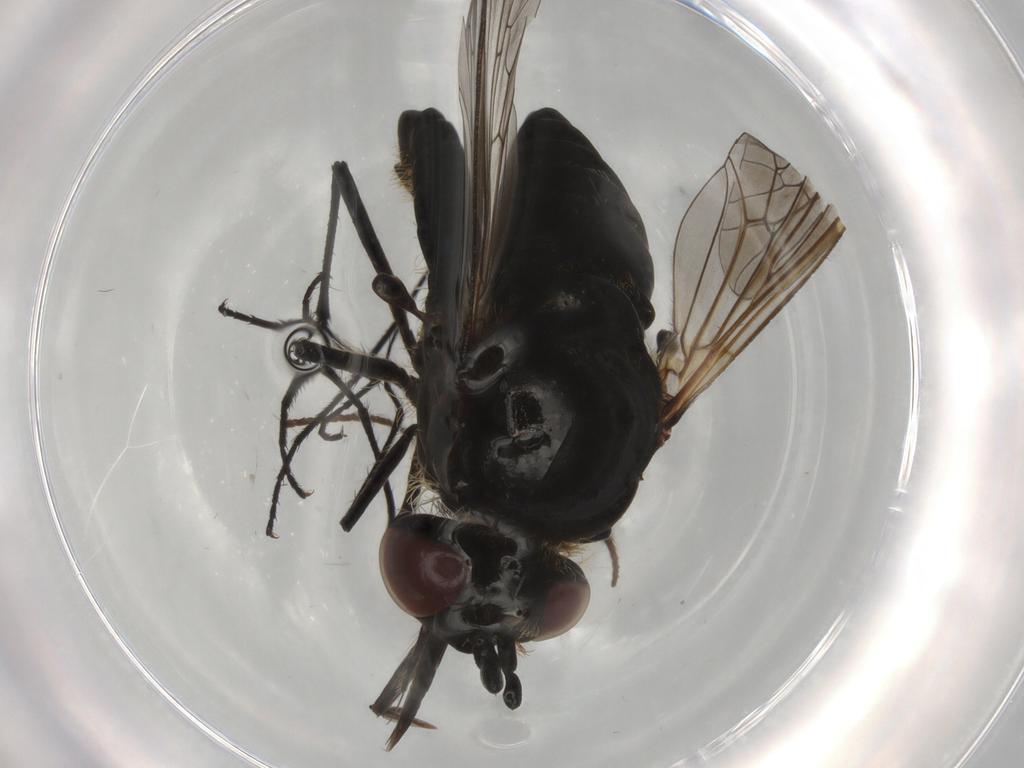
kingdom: Animalia
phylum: Arthropoda
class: Insecta
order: Diptera
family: Bombyliidae
